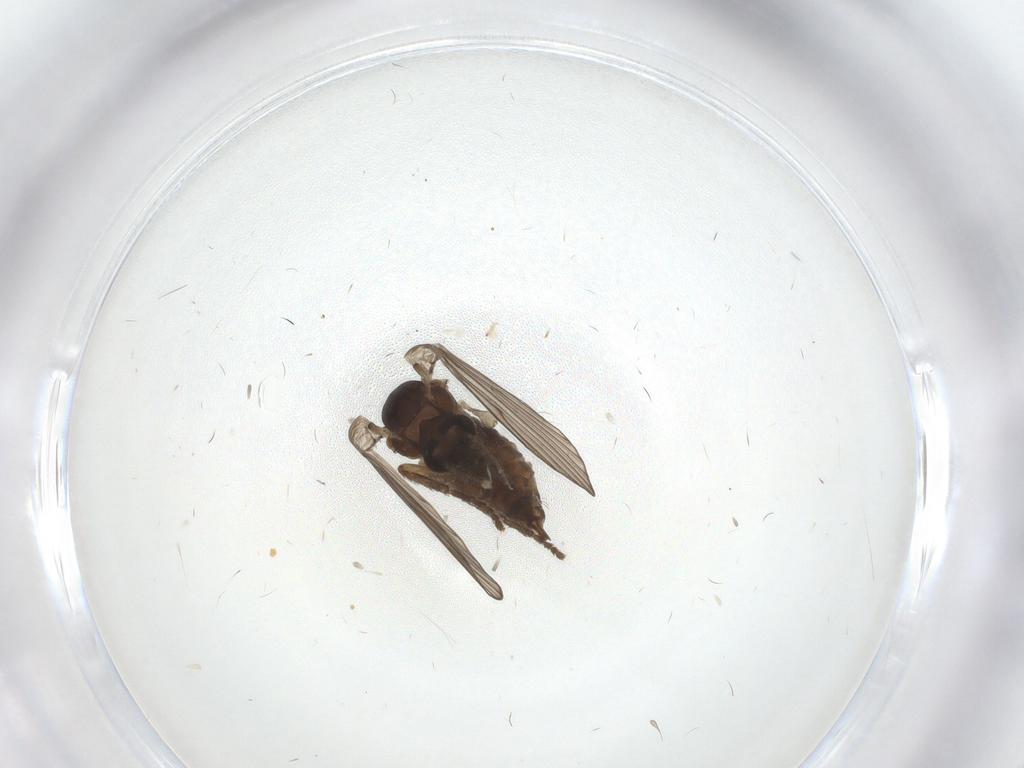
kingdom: Animalia
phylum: Arthropoda
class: Insecta
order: Diptera
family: Psychodidae
